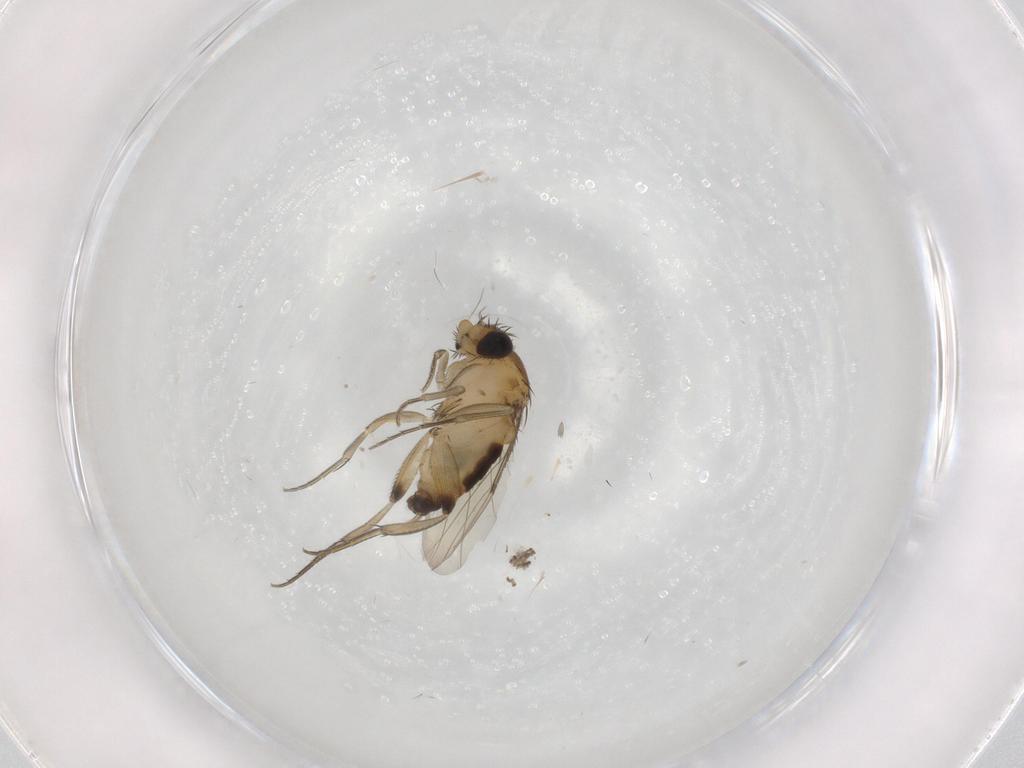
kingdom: Animalia
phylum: Arthropoda
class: Insecta
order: Diptera
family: Phoridae
